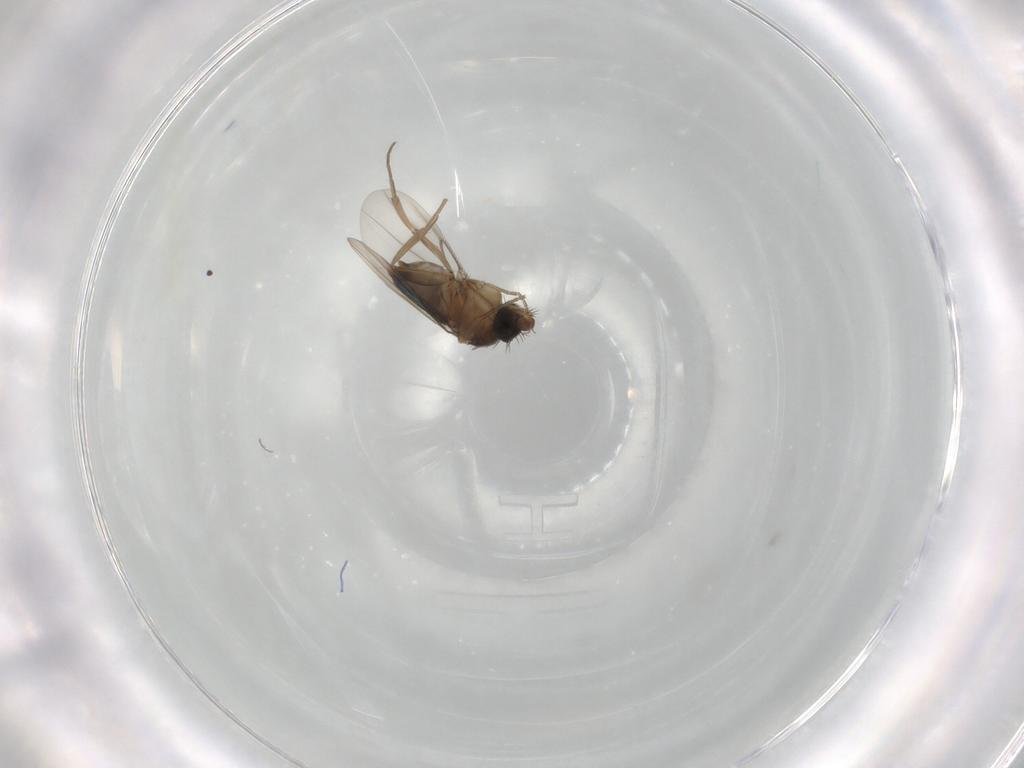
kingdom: Animalia
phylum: Arthropoda
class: Insecta
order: Diptera
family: Phoridae
